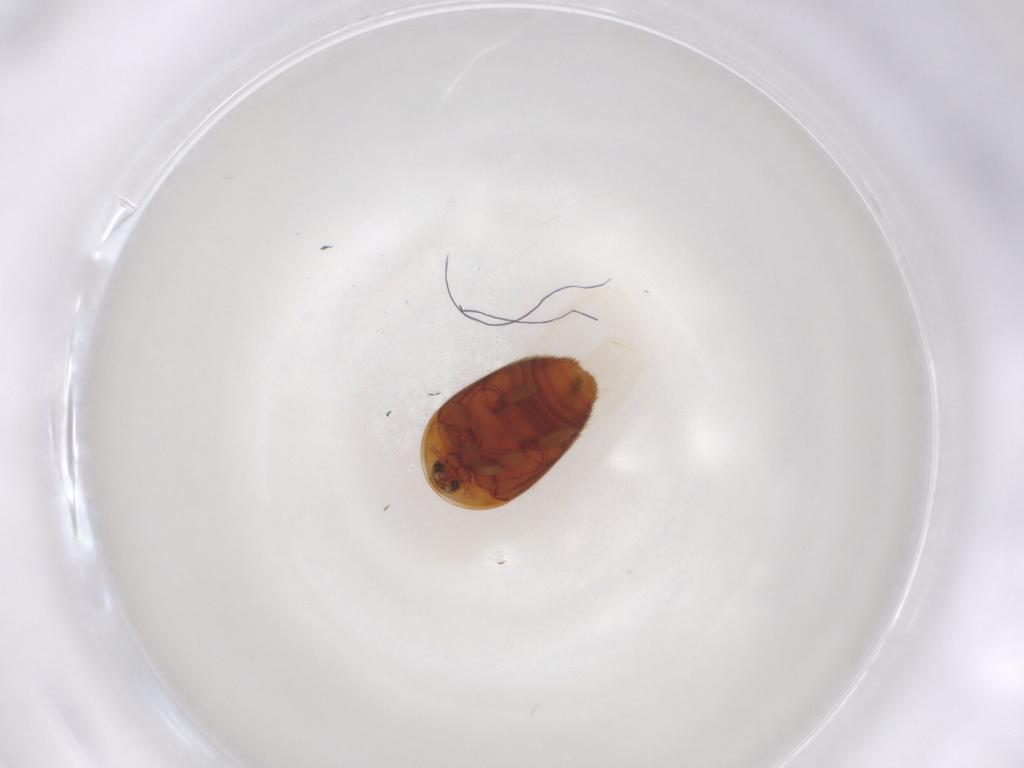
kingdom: Animalia
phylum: Arthropoda
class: Insecta
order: Coleoptera
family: Corylophidae
